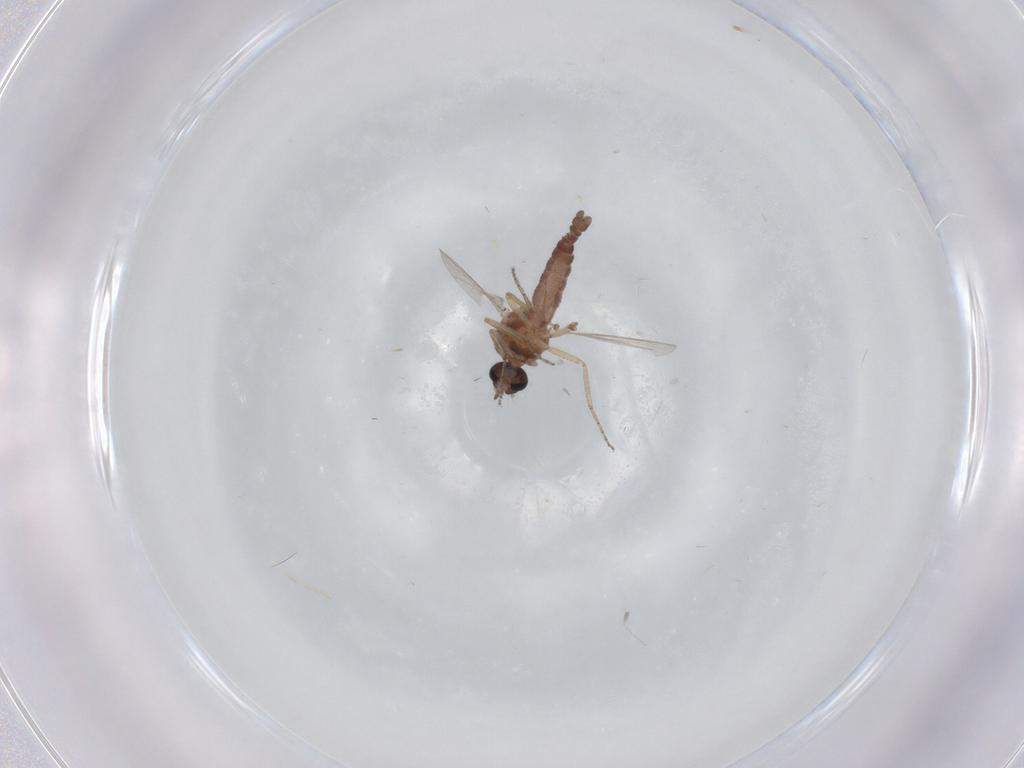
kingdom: Animalia
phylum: Arthropoda
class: Insecta
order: Diptera
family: Ceratopogonidae
